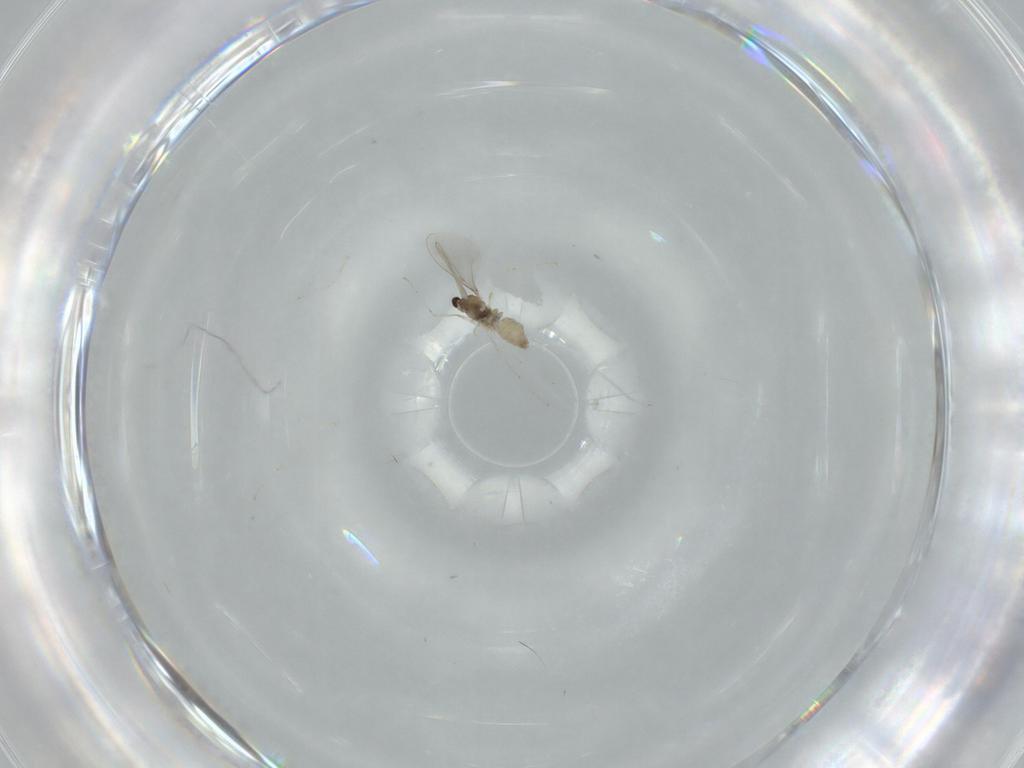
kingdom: Animalia
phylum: Arthropoda
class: Insecta
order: Diptera
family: Cecidomyiidae
